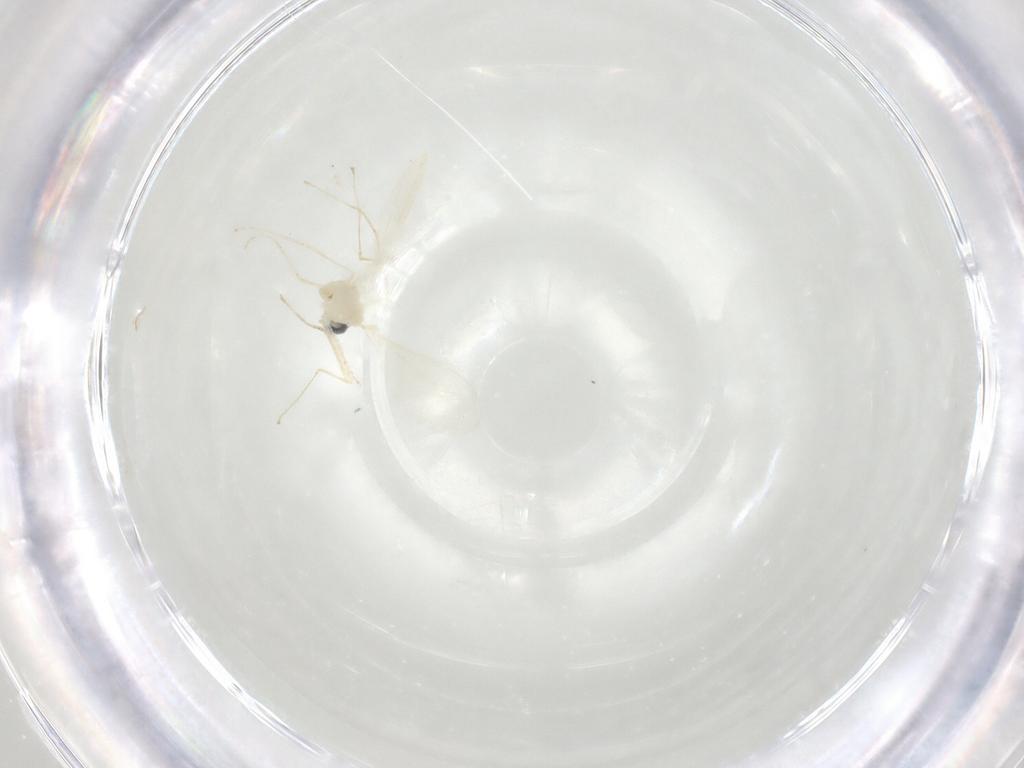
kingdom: Animalia
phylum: Arthropoda
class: Insecta
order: Diptera
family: Cecidomyiidae
